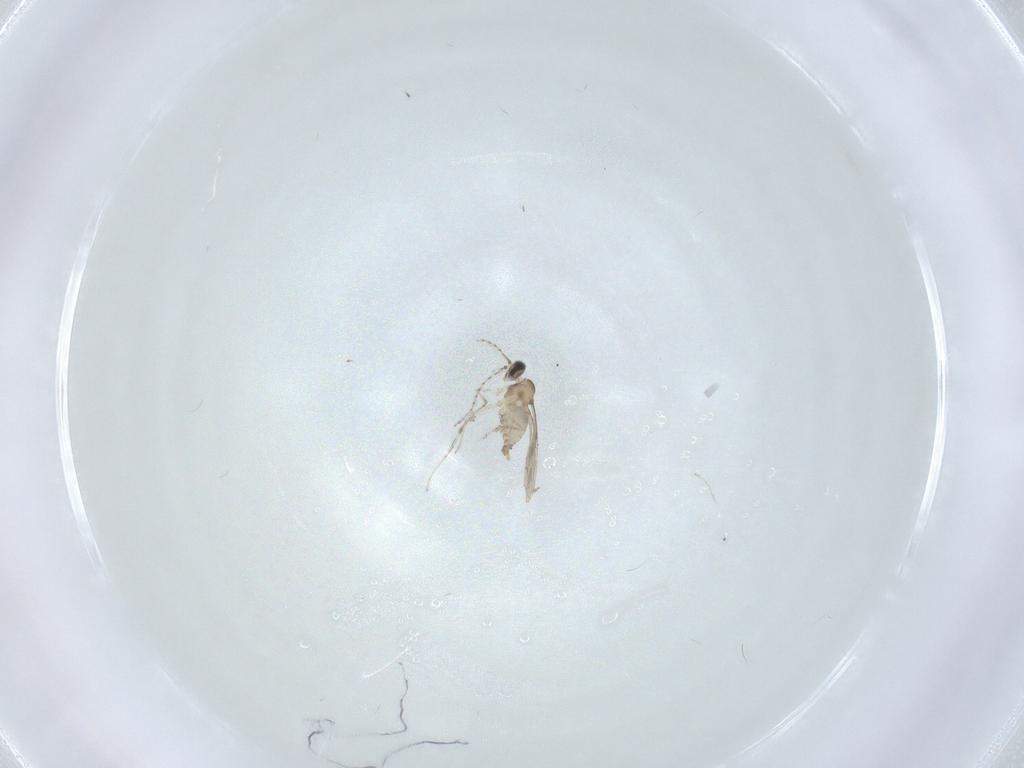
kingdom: Animalia
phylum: Arthropoda
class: Insecta
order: Diptera
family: Cecidomyiidae
